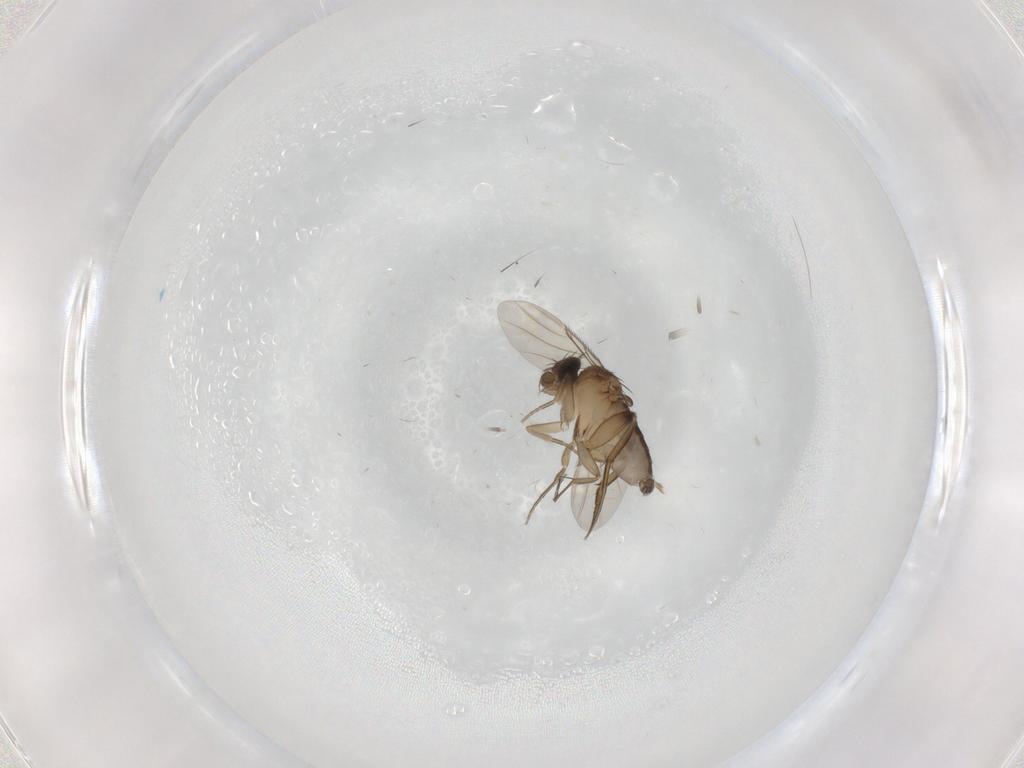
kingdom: Animalia
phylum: Arthropoda
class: Insecta
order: Diptera
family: Phoridae
